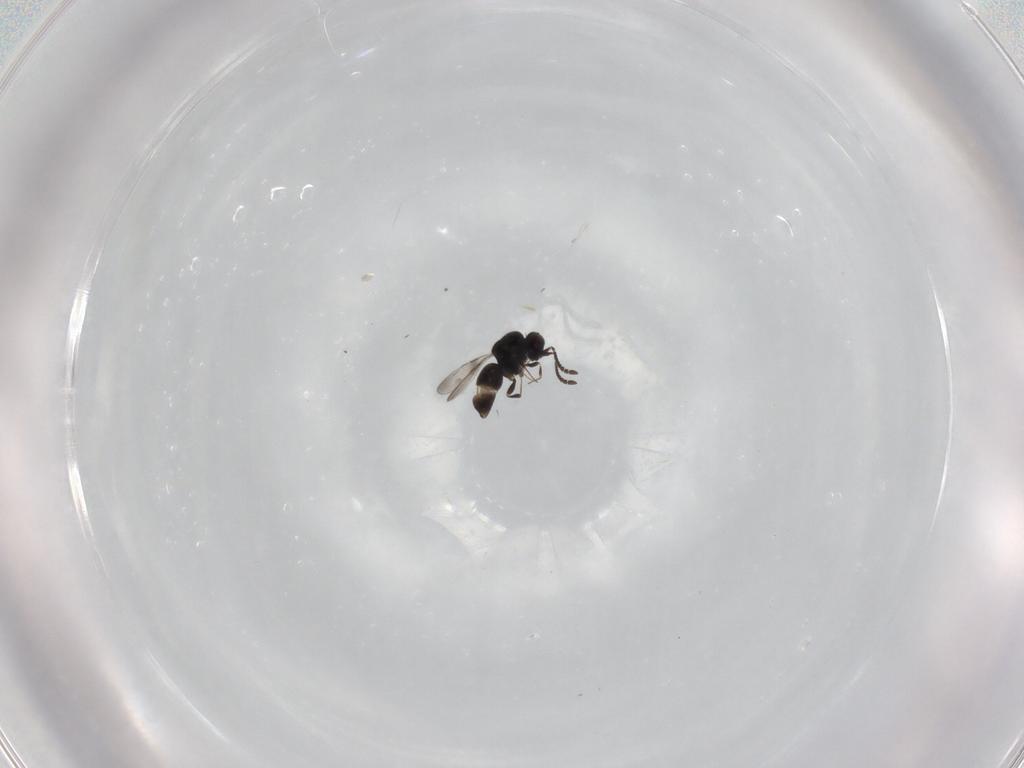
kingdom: Animalia
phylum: Arthropoda
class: Insecta
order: Hymenoptera
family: Ceraphronidae
